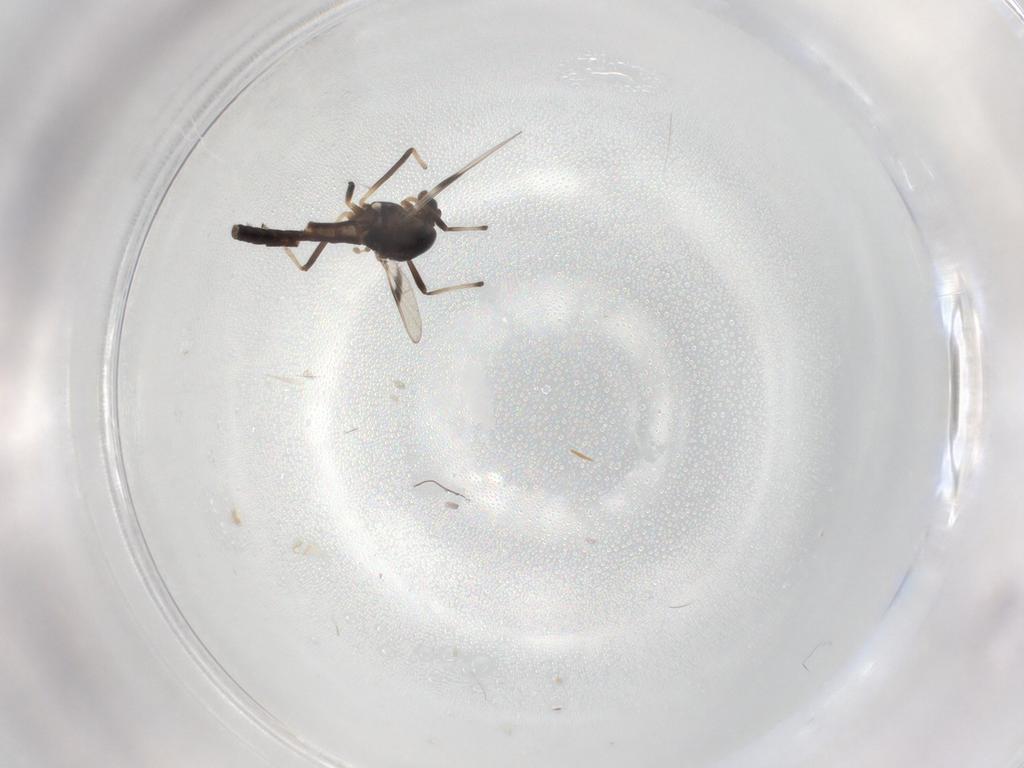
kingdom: Animalia
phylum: Arthropoda
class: Insecta
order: Diptera
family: Chironomidae
